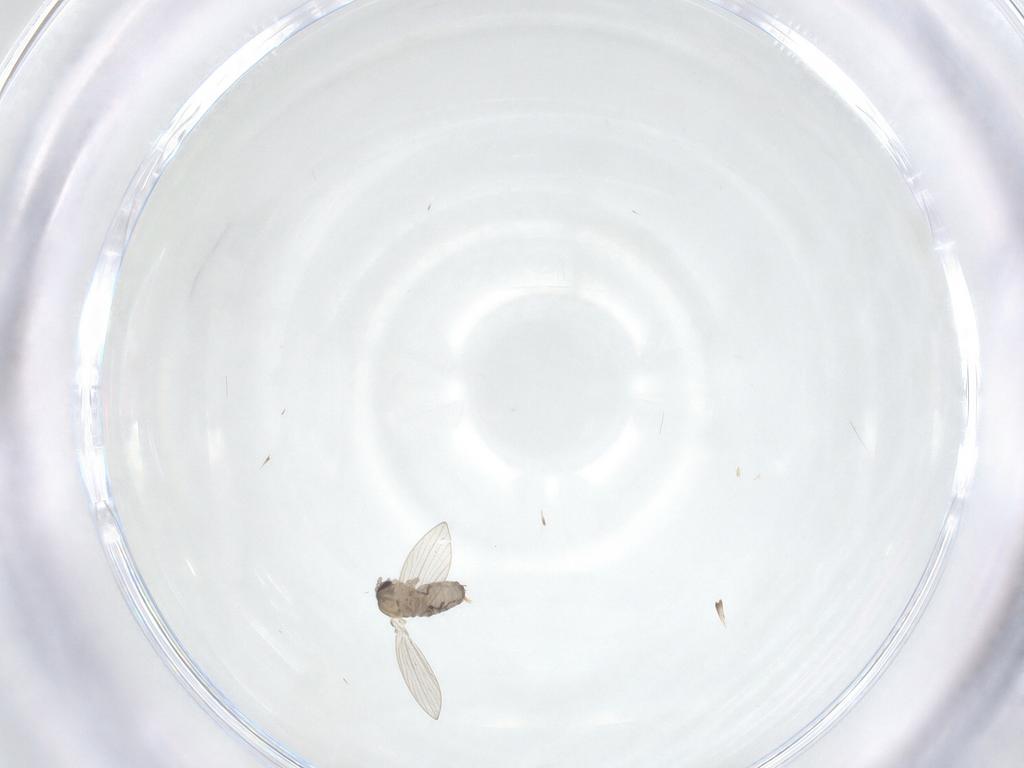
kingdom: Animalia
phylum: Arthropoda
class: Insecta
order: Diptera
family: Psychodidae
